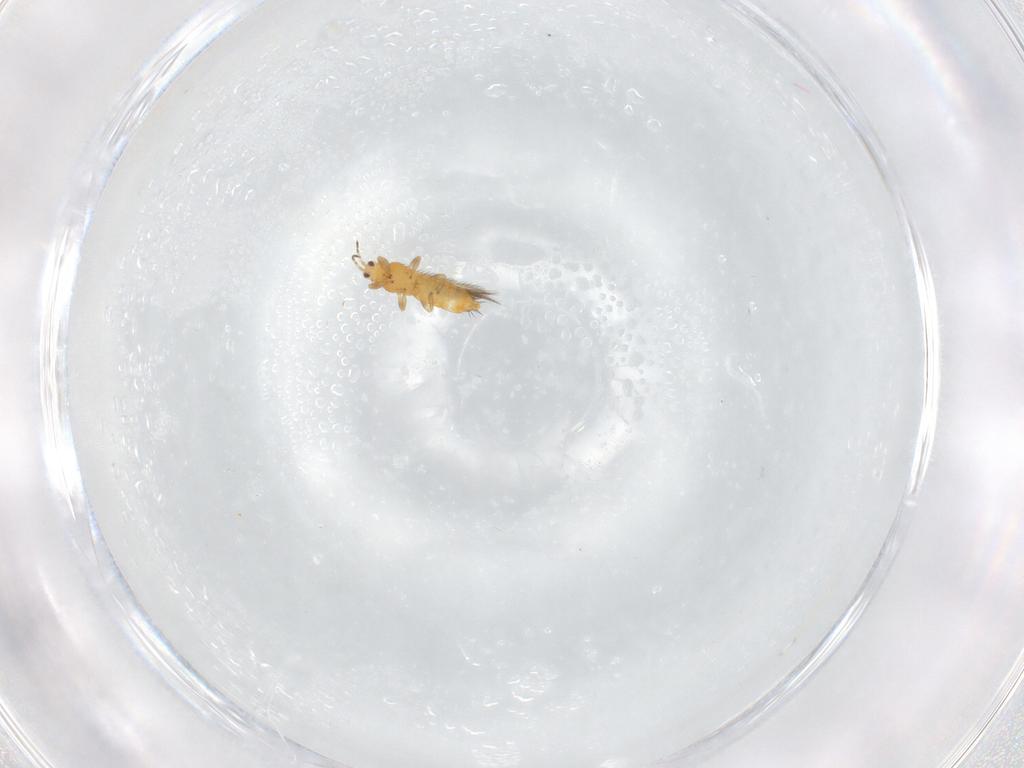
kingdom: Animalia
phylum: Arthropoda
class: Insecta
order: Thysanoptera
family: Thripidae
